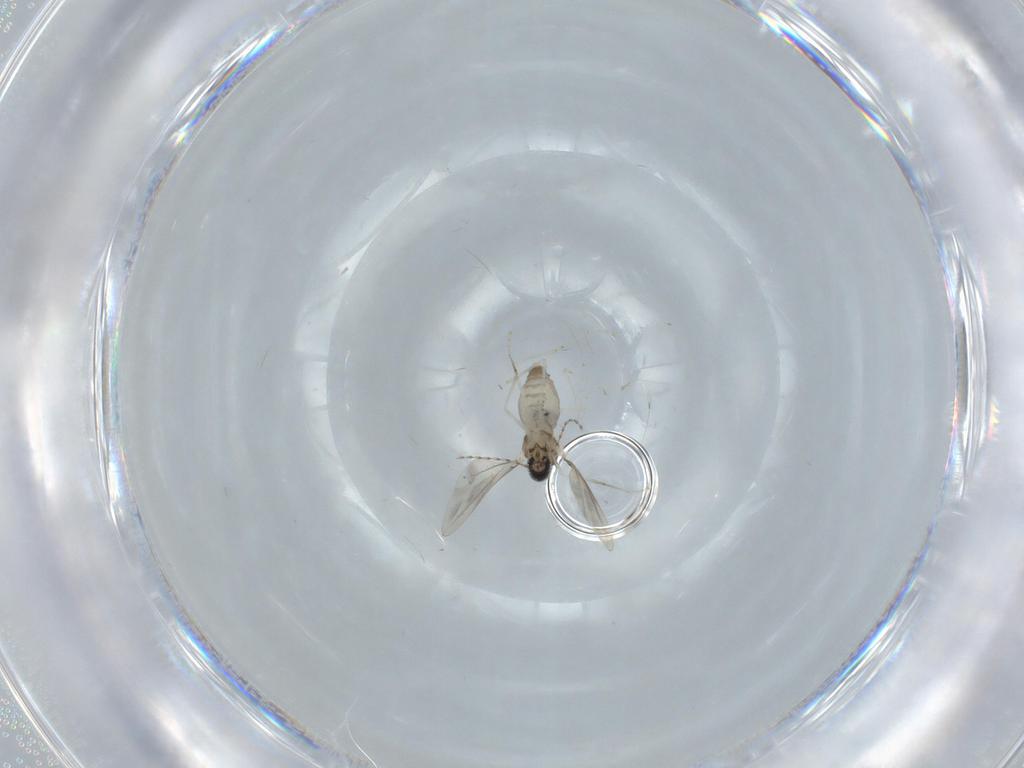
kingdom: Animalia
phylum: Arthropoda
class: Insecta
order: Diptera
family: Cecidomyiidae
